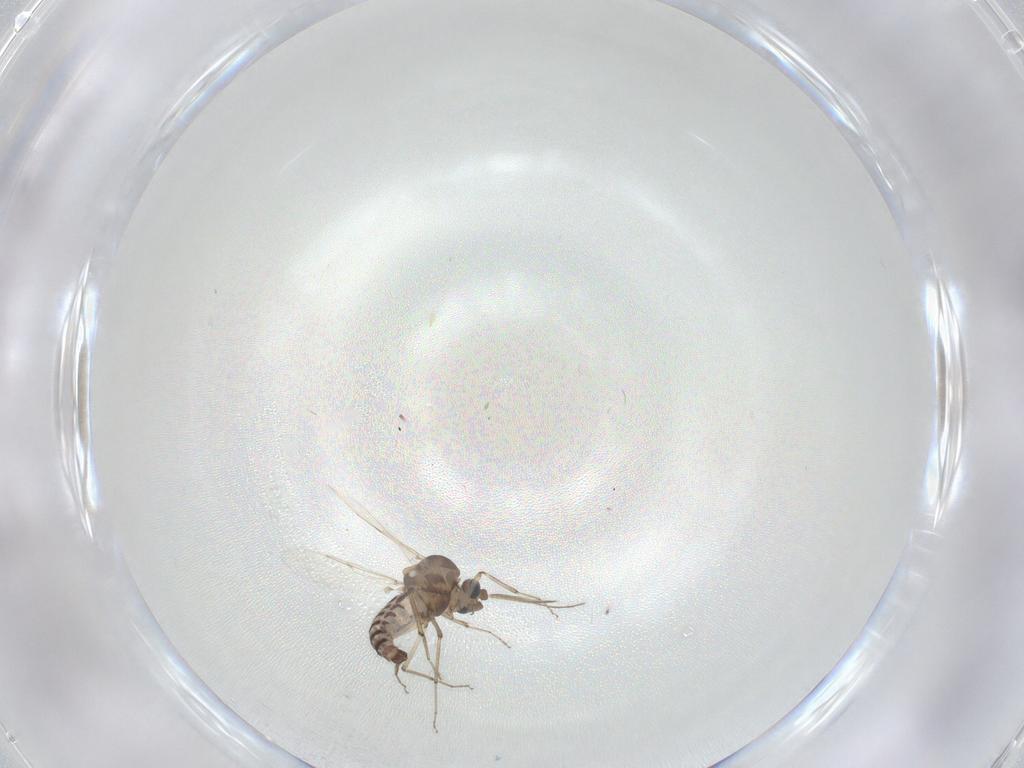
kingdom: Animalia
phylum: Arthropoda
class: Insecta
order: Diptera
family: Ceratopogonidae
